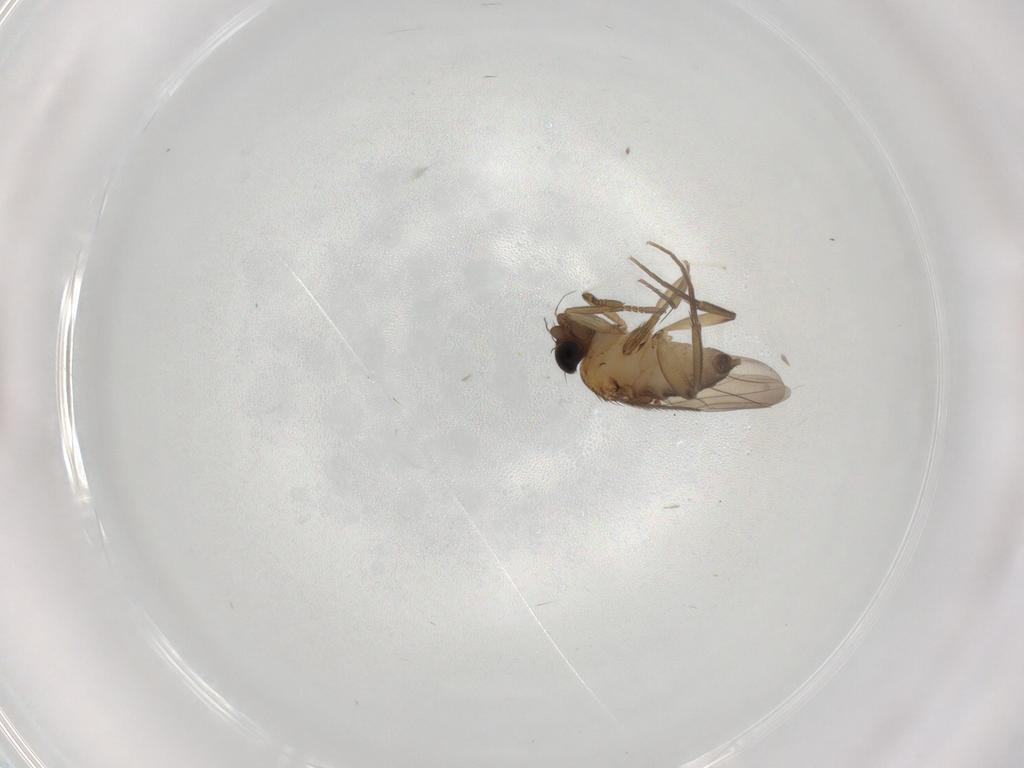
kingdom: Animalia
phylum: Arthropoda
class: Insecta
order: Diptera
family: Phoridae
